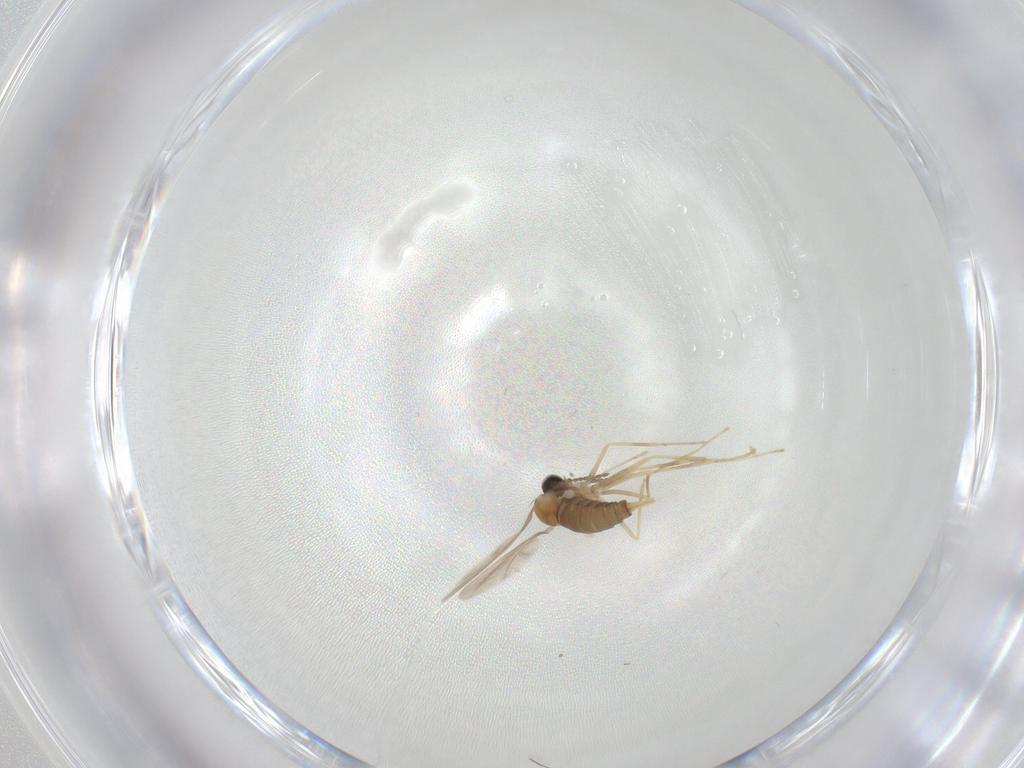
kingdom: Animalia
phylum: Arthropoda
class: Insecta
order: Diptera
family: Cecidomyiidae
